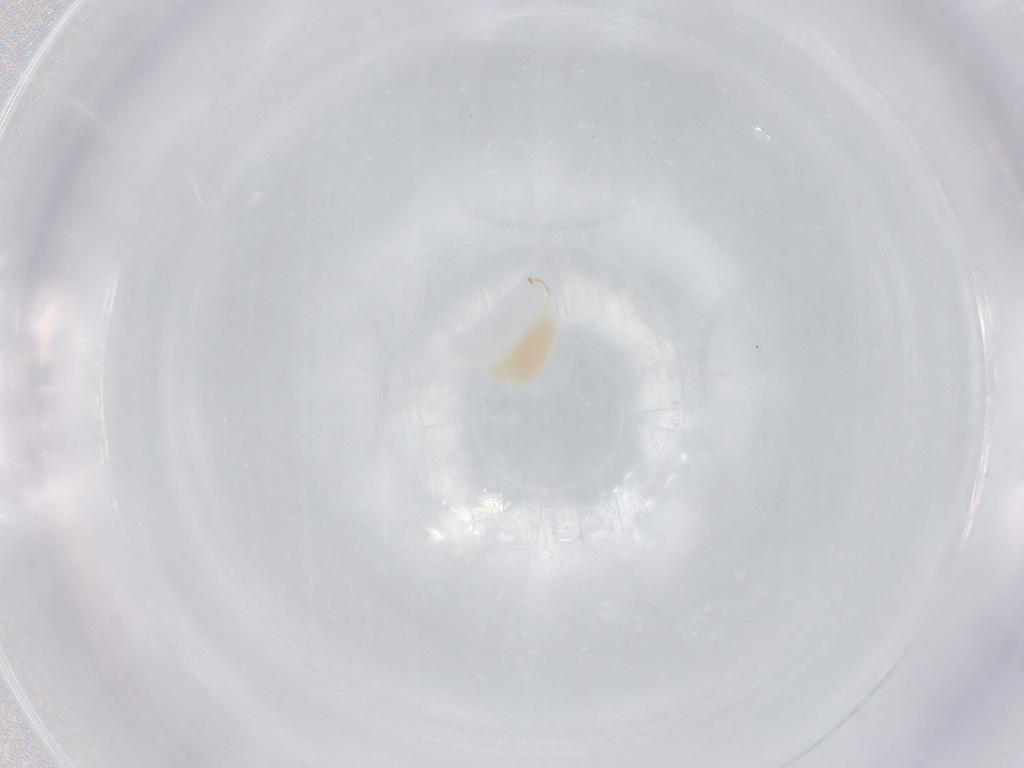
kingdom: Animalia
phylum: Arthropoda
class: Insecta
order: Hymenoptera
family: Ichneumonidae
